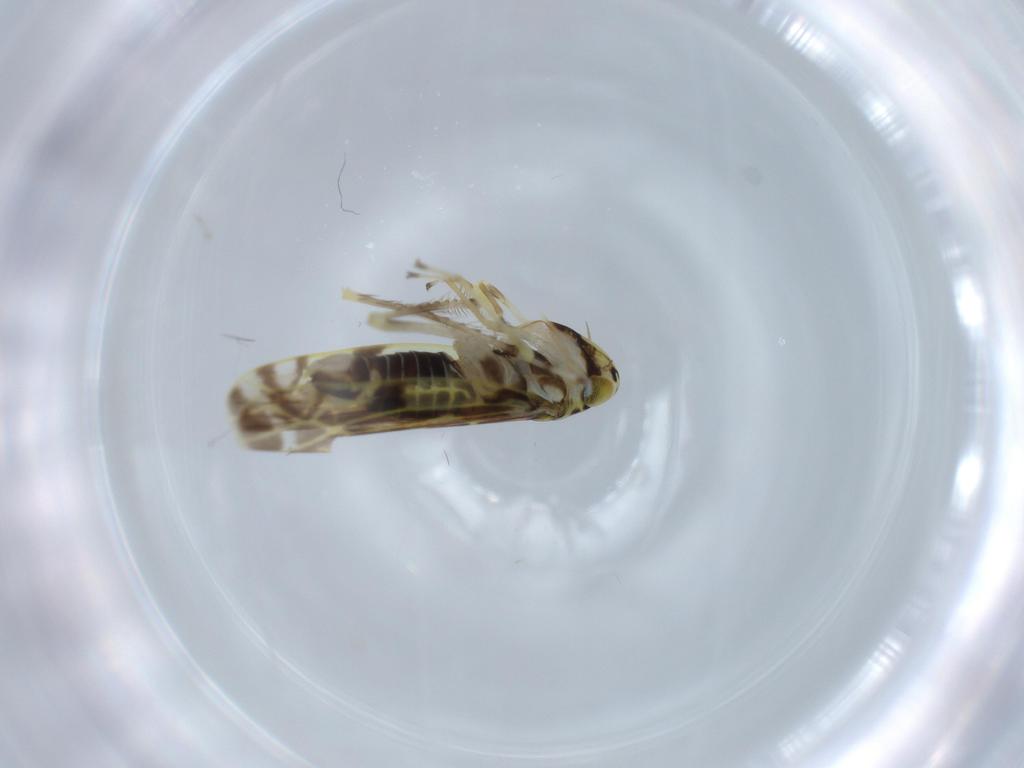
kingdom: Animalia
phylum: Arthropoda
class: Insecta
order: Hemiptera
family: Cicadellidae
